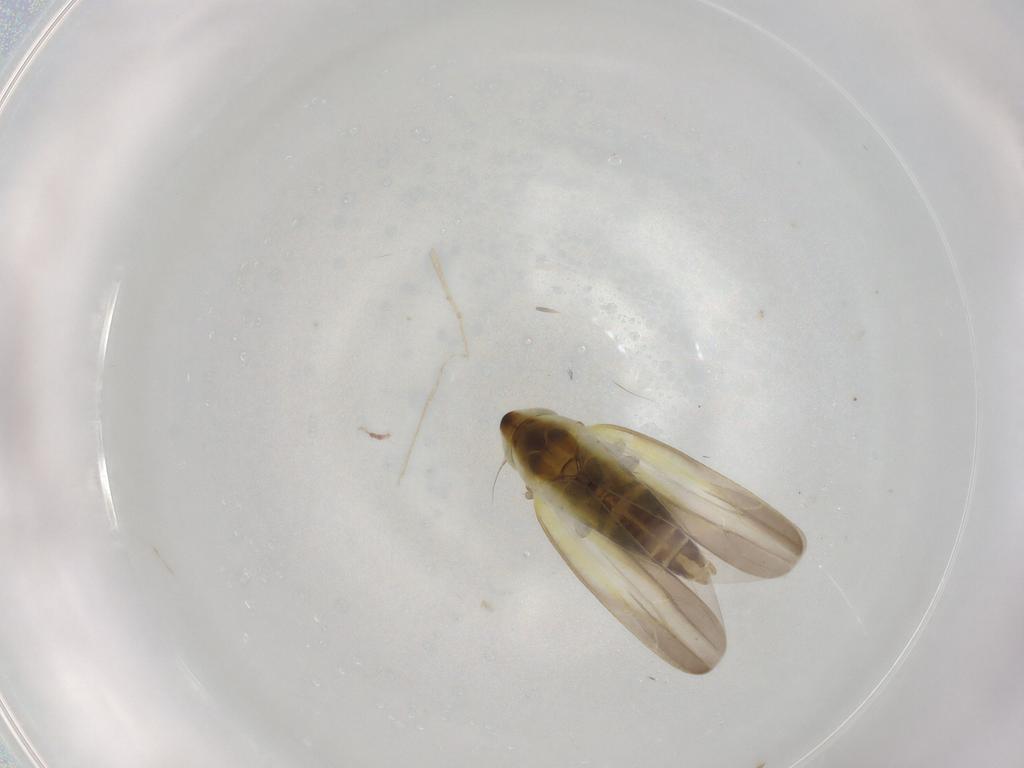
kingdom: Animalia
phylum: Arthropoda
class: Insecta
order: Hemiptera
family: Cicadellidae
